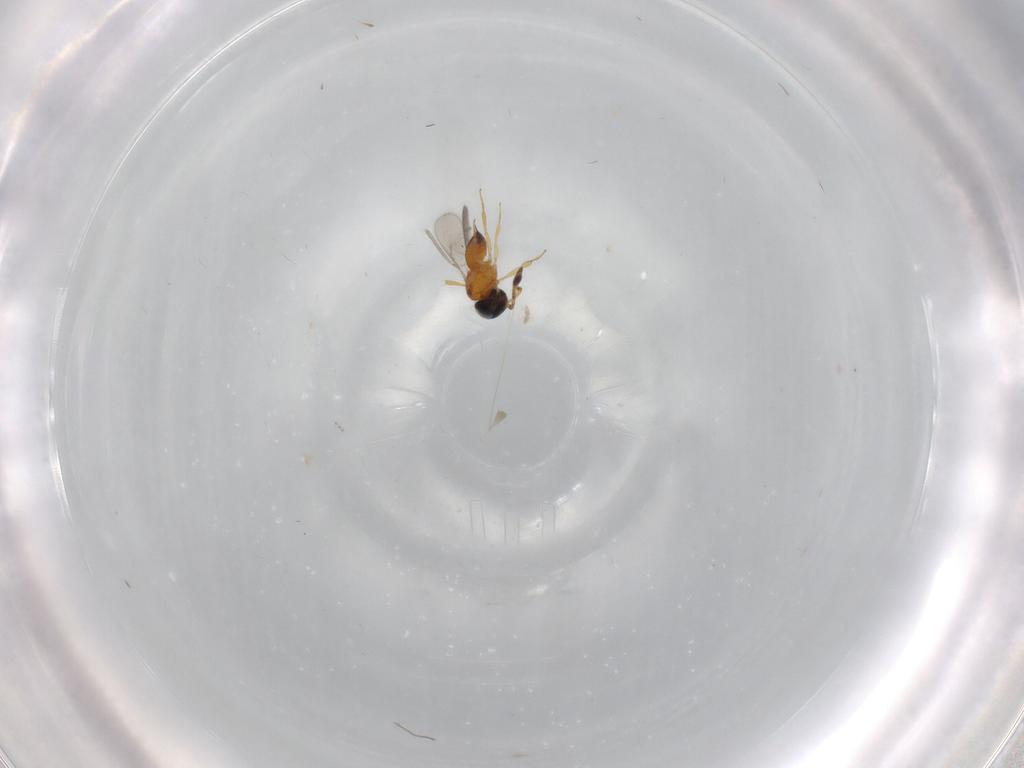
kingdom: Animalia
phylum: Arthropoda
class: Insecta
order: Hymenoptera
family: Scelionidae
